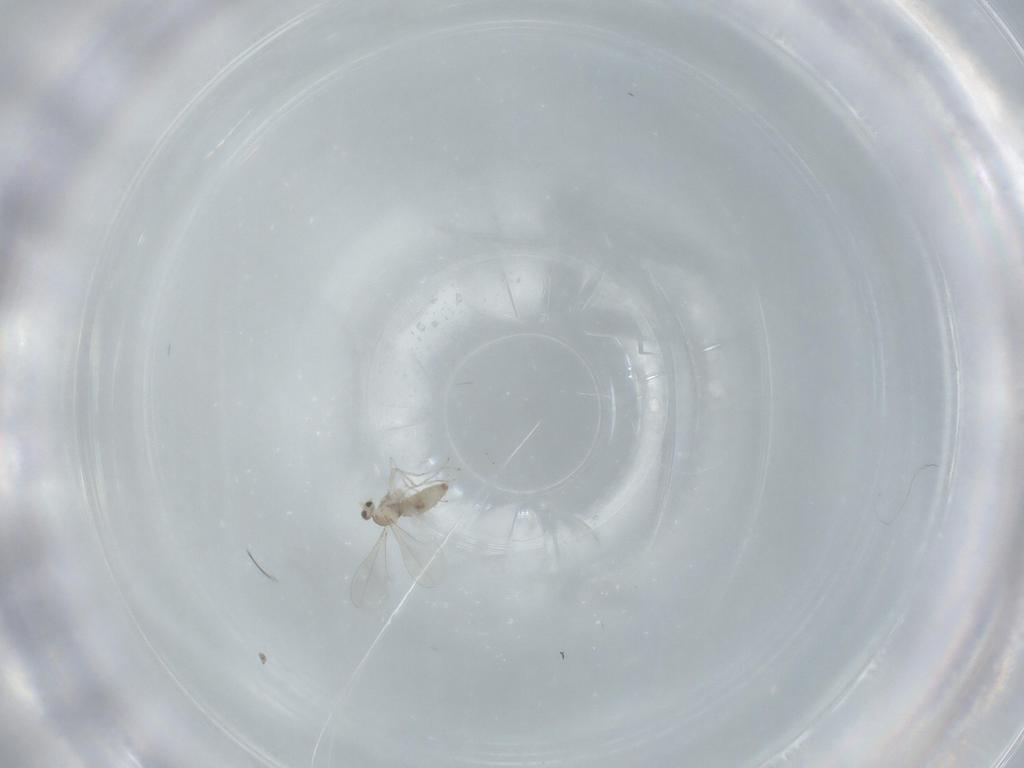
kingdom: Animalia
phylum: Arthropoda
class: Insecta
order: Diptera
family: Cecidomyiidae
